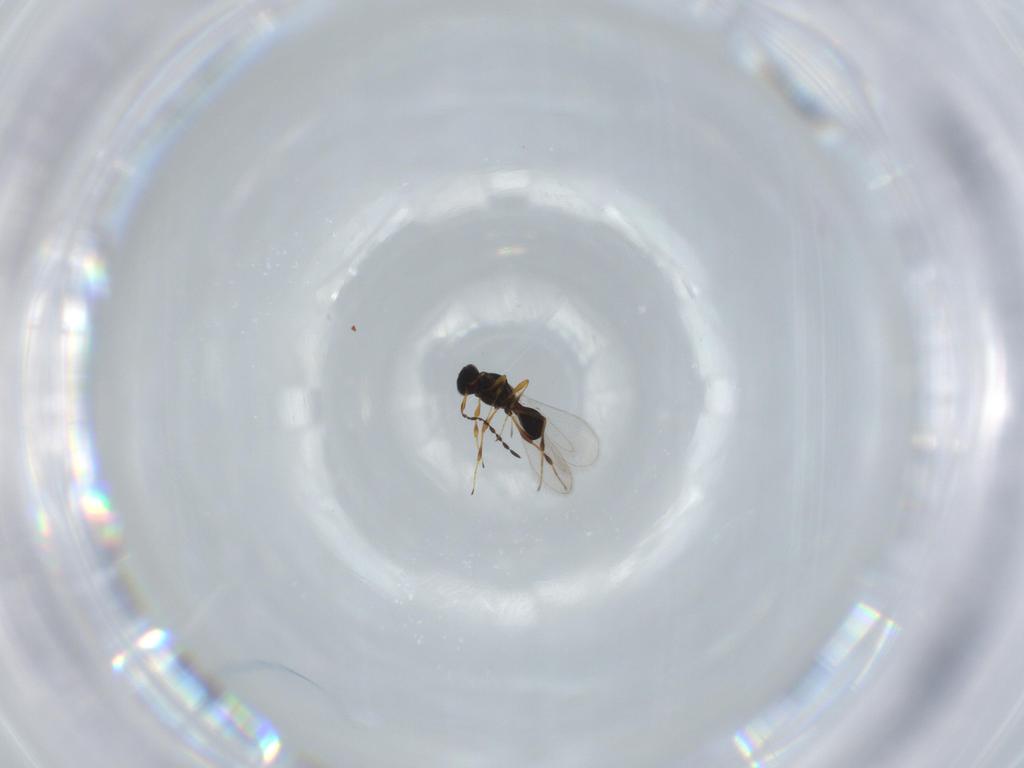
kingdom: Animalia
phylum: Arthropoda
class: Insecta
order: Hymenoptera
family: Platygastridae
